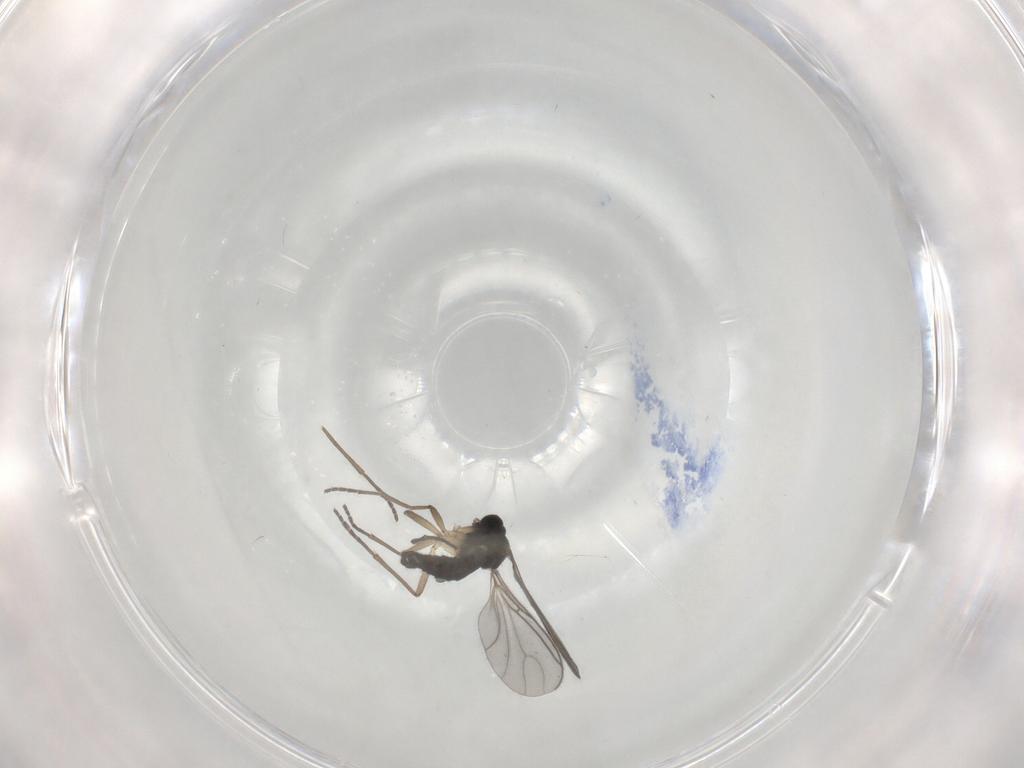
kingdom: Animalia
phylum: Arthropoda
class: Insecta
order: Diptera
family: Sciaridae
